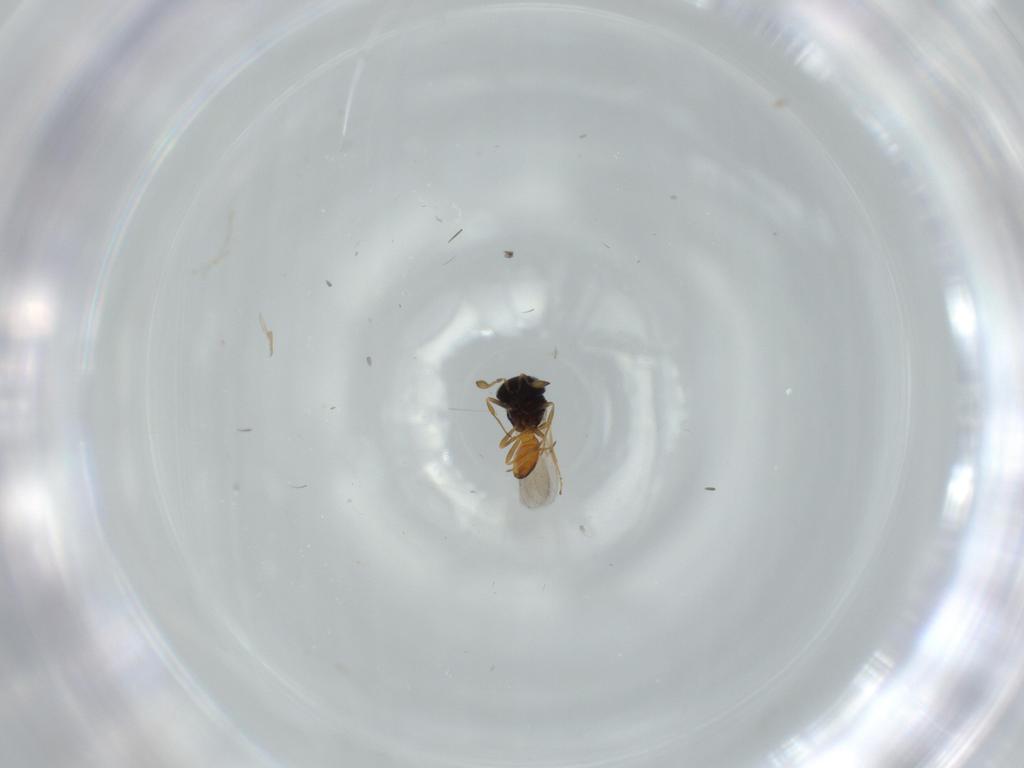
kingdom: Animalia
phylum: Arthropoda
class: Insecta
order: Hymenoptera
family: Scelionidae
